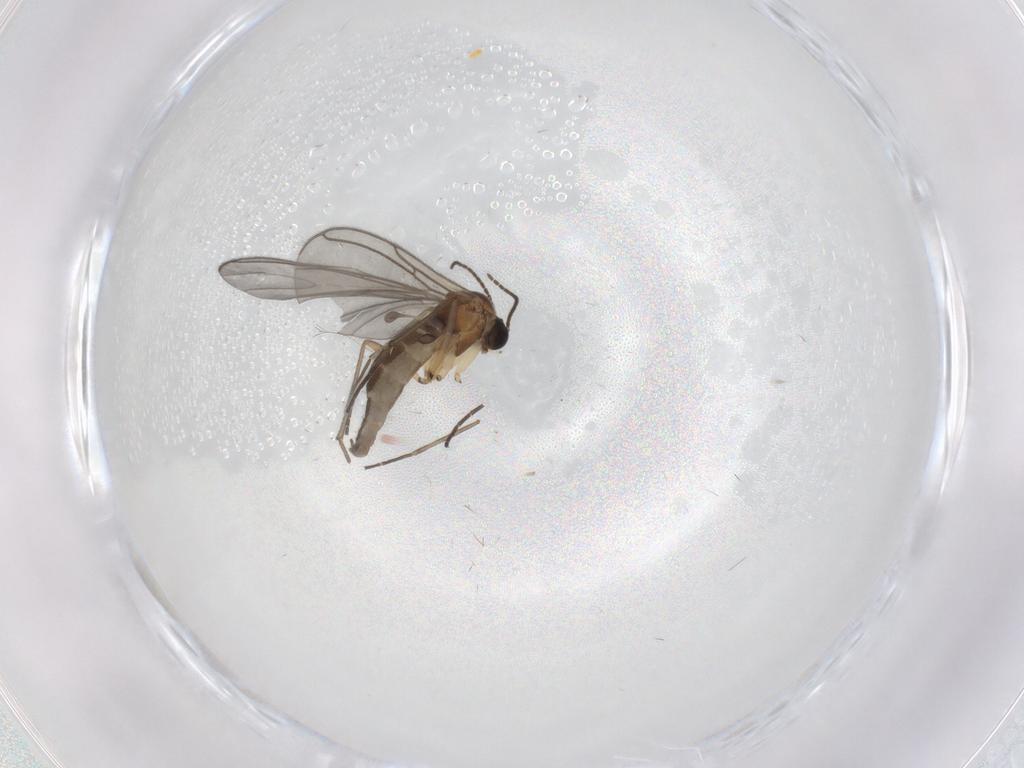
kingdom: Animalia
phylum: Arthropoda
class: Insecta
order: Diptera
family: Sciaridae
